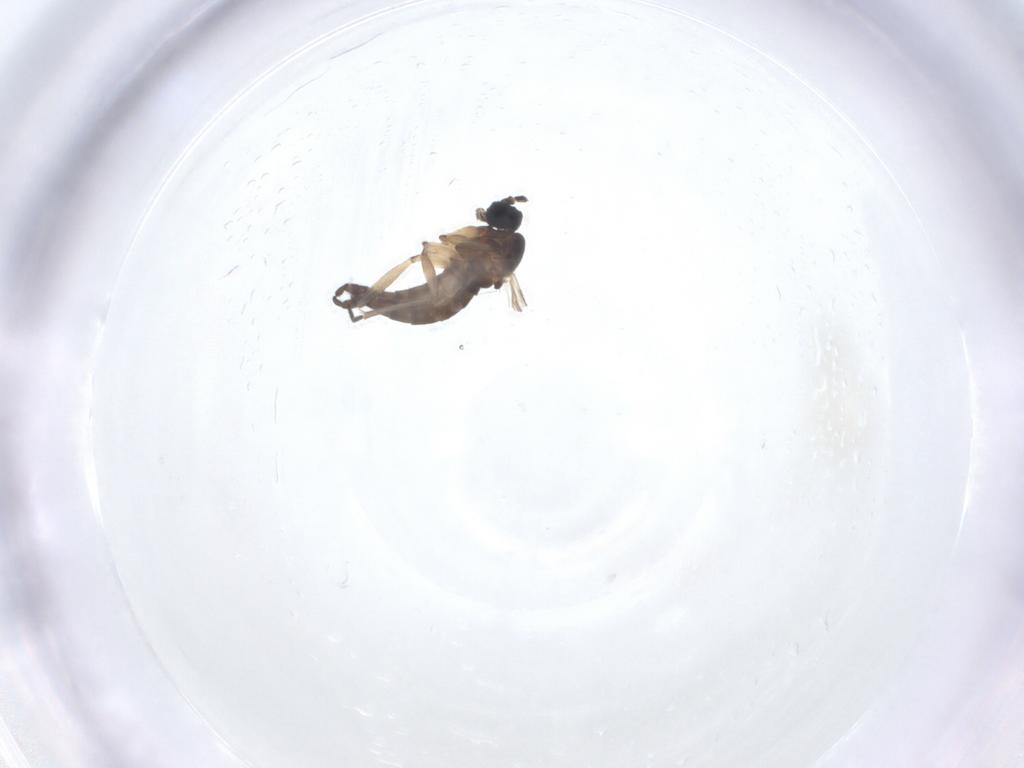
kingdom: Animalia
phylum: Arthropoda
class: Insecta
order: Diptera
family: Sciaridae
